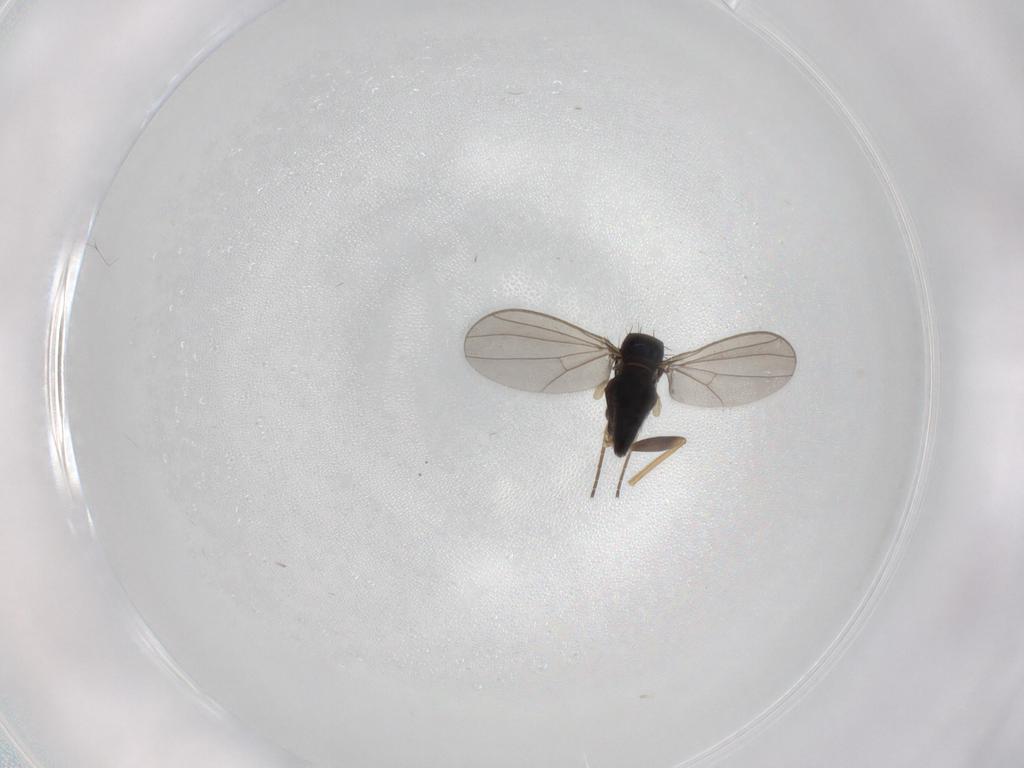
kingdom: Animalia
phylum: Arthropoda
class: Insecta
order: Diptera
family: Dolichopodidae
